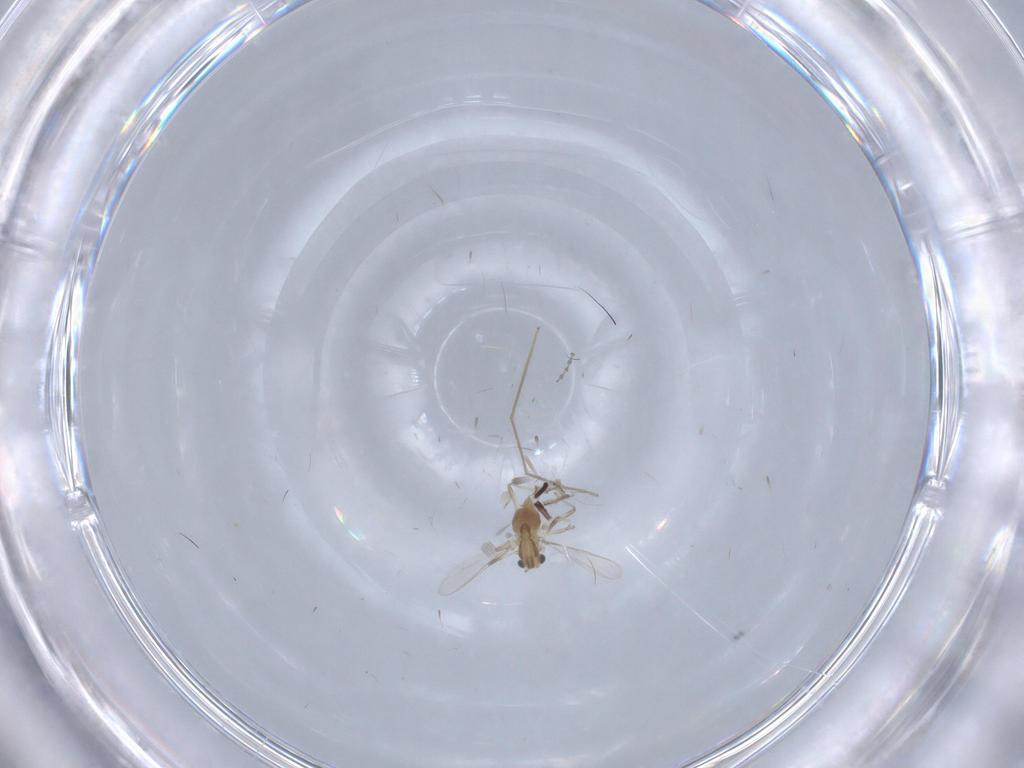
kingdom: Animalia
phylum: Arthropoda
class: Insecta
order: Diptera
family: Chironomidae
